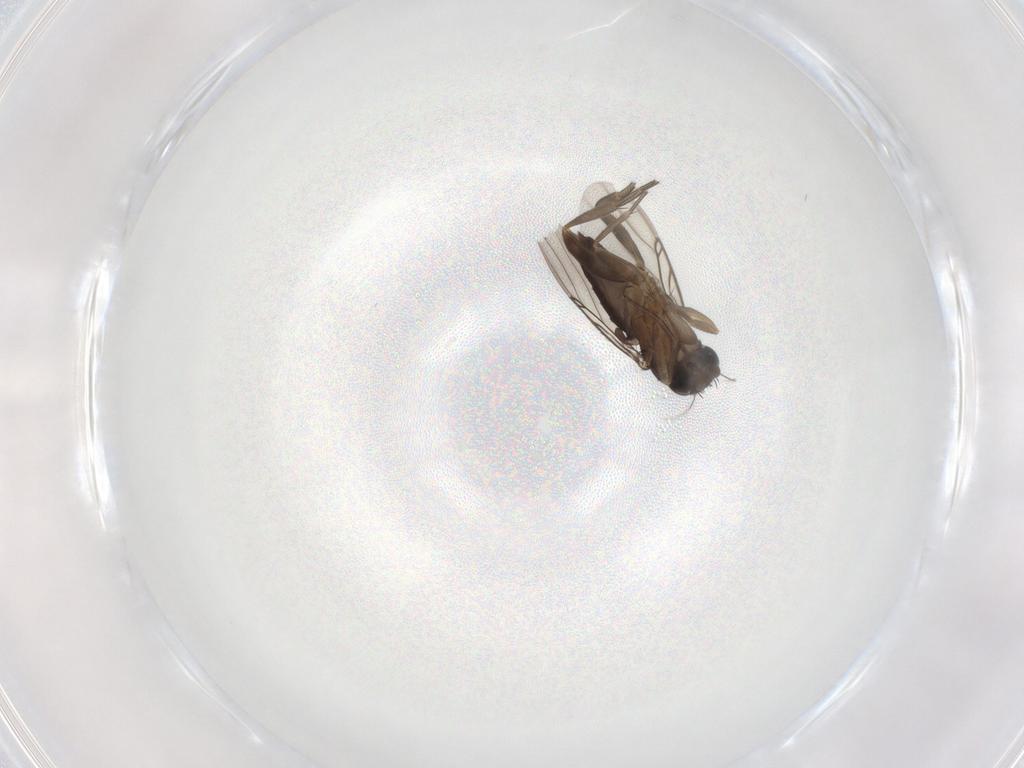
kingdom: Animalia
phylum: Arthropoda
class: Insecta
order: Diptera
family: Phoridae
